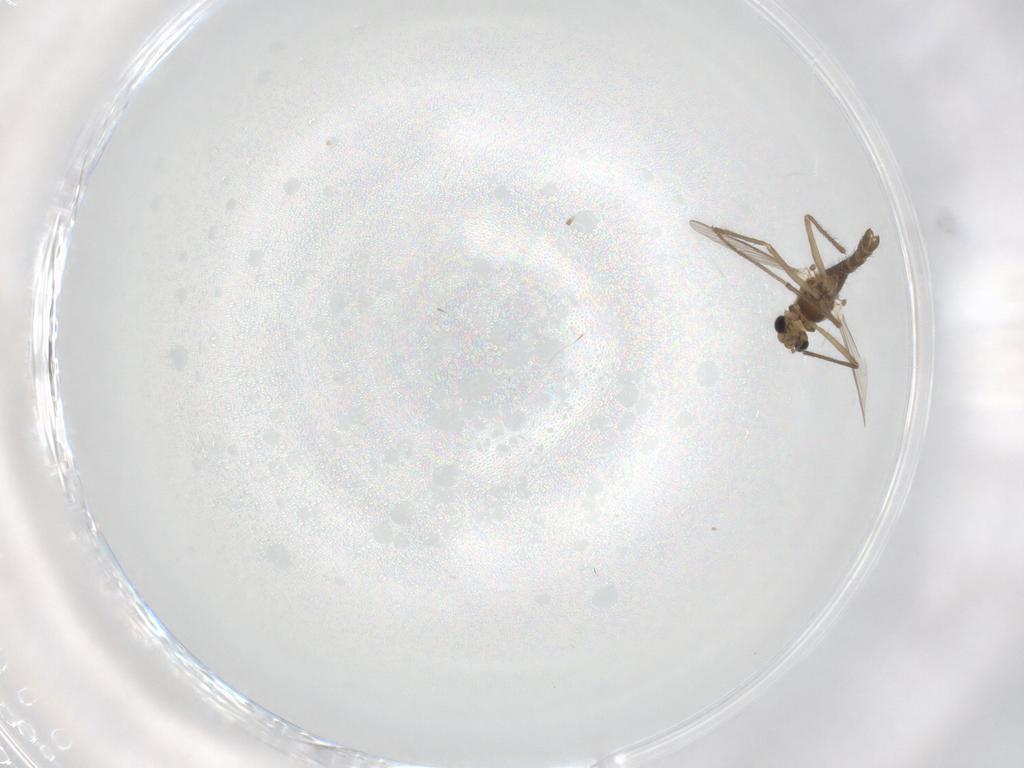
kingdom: Animalia
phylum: Arthropoda
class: Insecta
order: Diptera
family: Chironomidae
